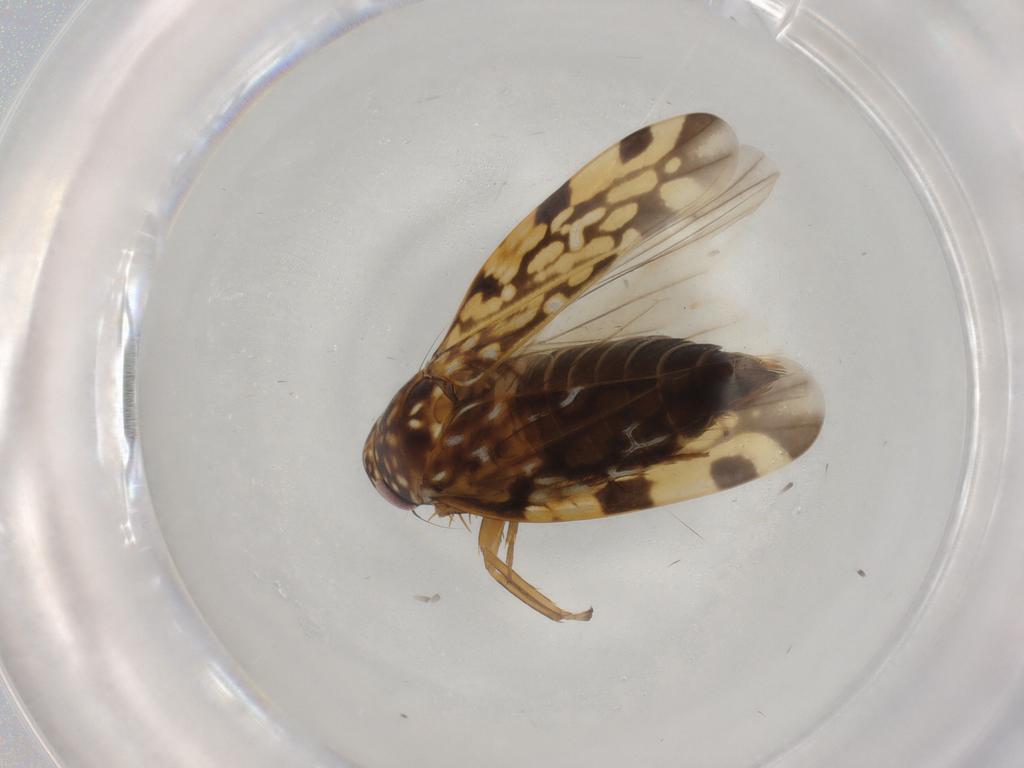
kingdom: Animalia
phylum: Arthropoda
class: Insecta
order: Hemiptera
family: Cicadellidae
